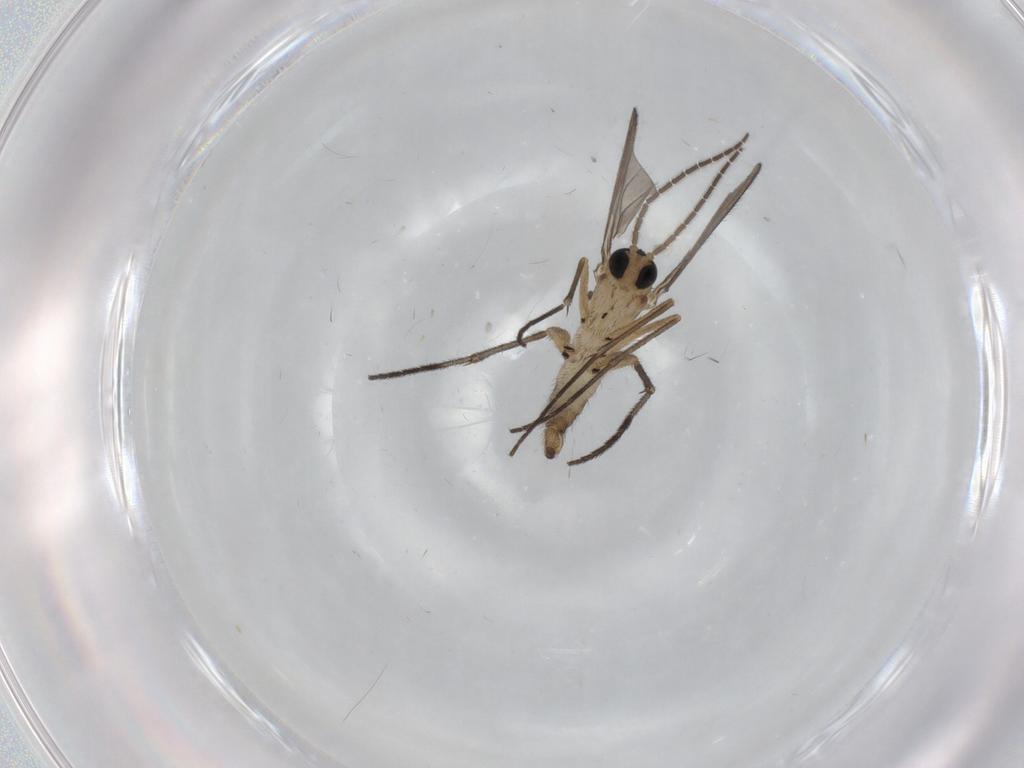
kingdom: Animalia
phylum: Arthropoda
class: Insecta
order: Diptera
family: Sciaridae
